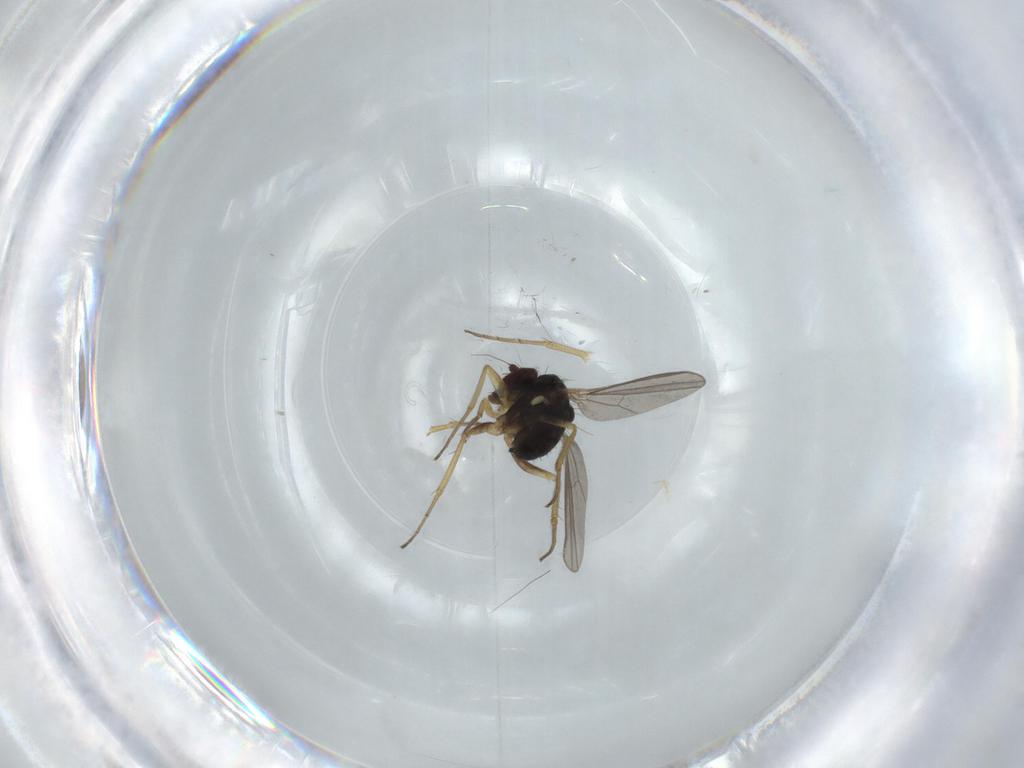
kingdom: Animalia
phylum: Arthropoda
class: Insecta
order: Diptera
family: Dolichopodidae
